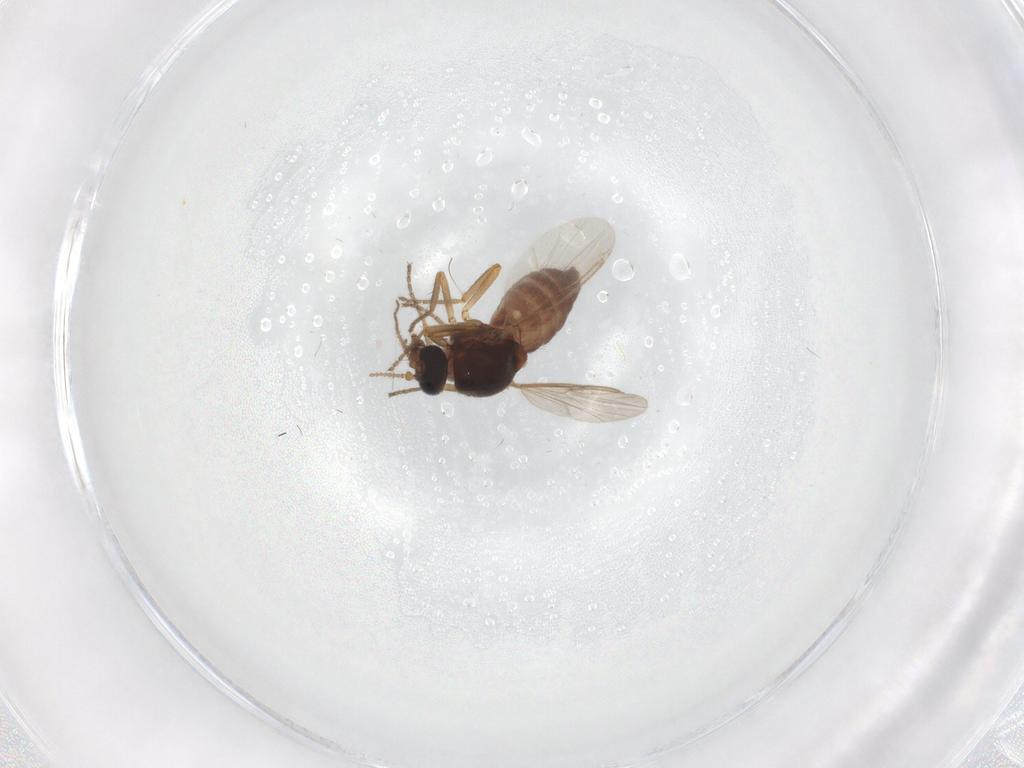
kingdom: Animalia
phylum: Arthropoda
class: Insecta
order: Diptera
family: Ceratopogonidae
